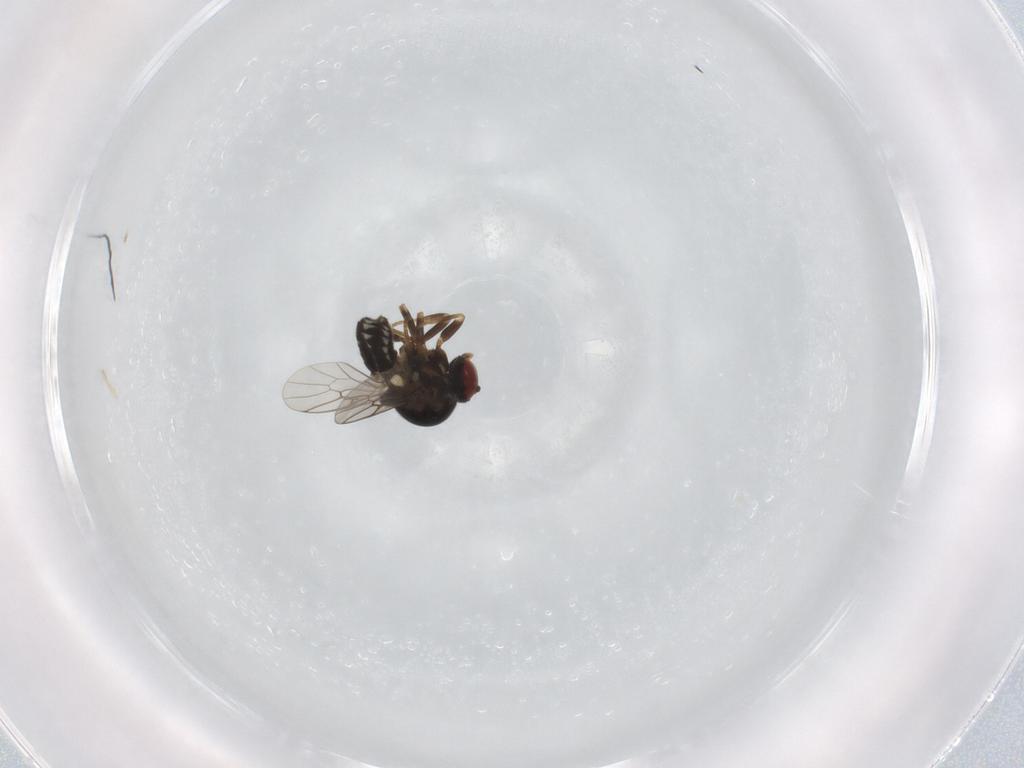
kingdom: Animalia
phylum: Arthropoda
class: Insecta
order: Diptera
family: Bombyliidae
